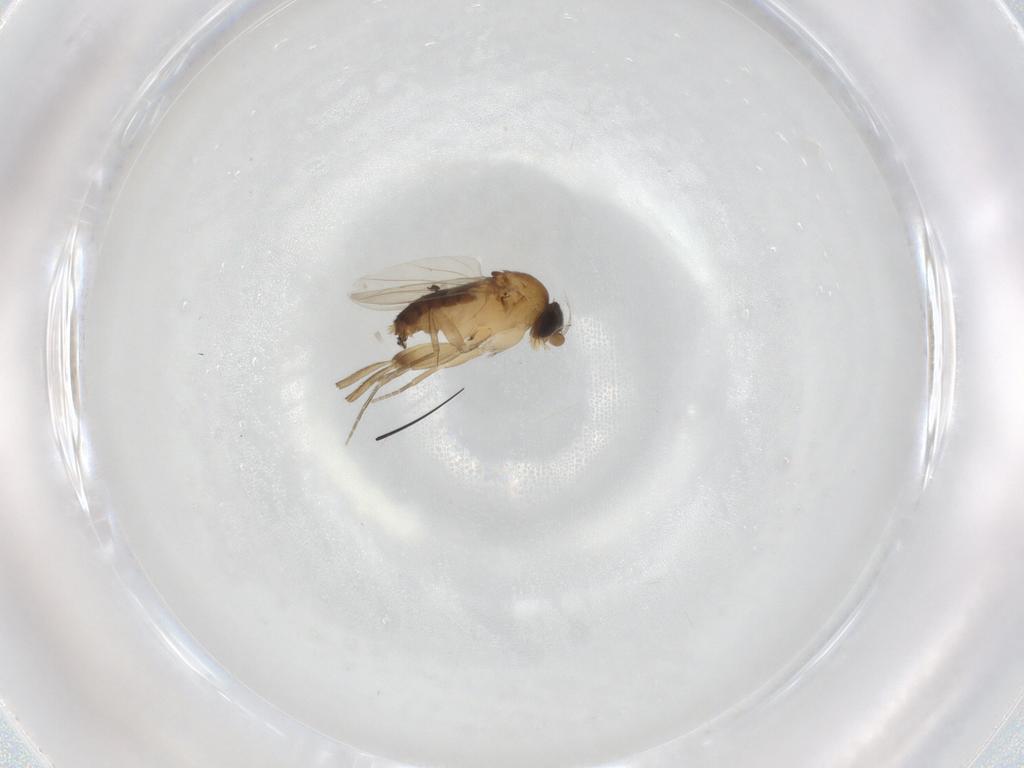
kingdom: Animalia
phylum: Arthropoda
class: Insecta
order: Diptera
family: Phoridae
